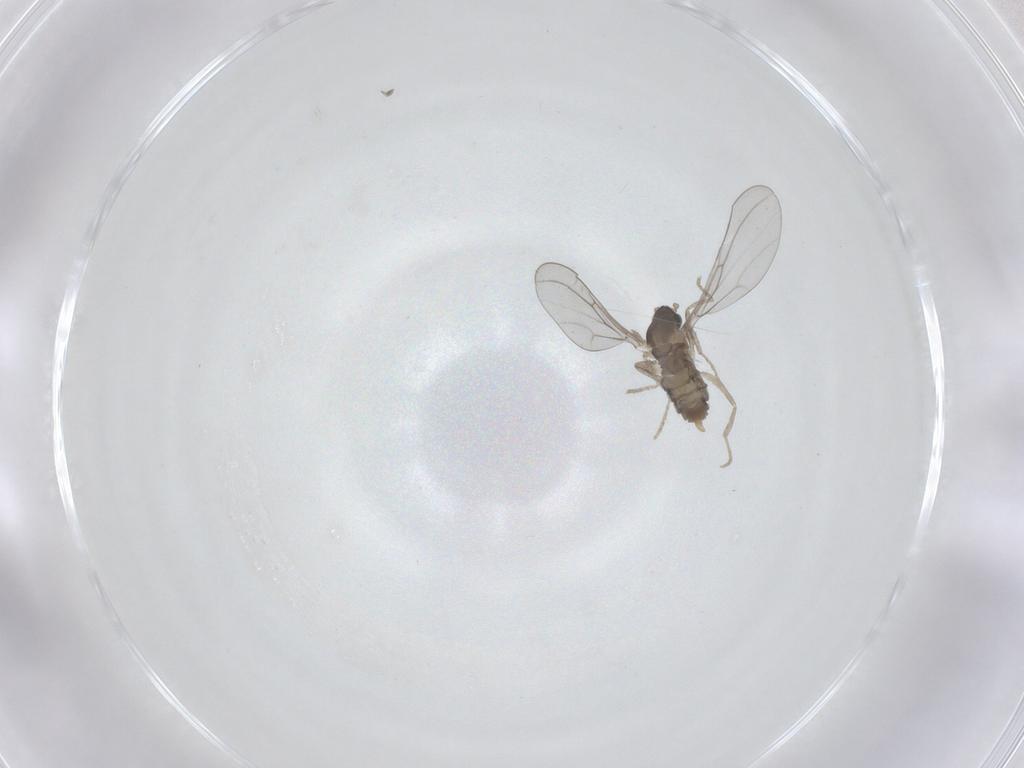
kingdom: Animalia
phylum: Arthropoda
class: Insecta
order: Diptera
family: Cecidomyiidae
